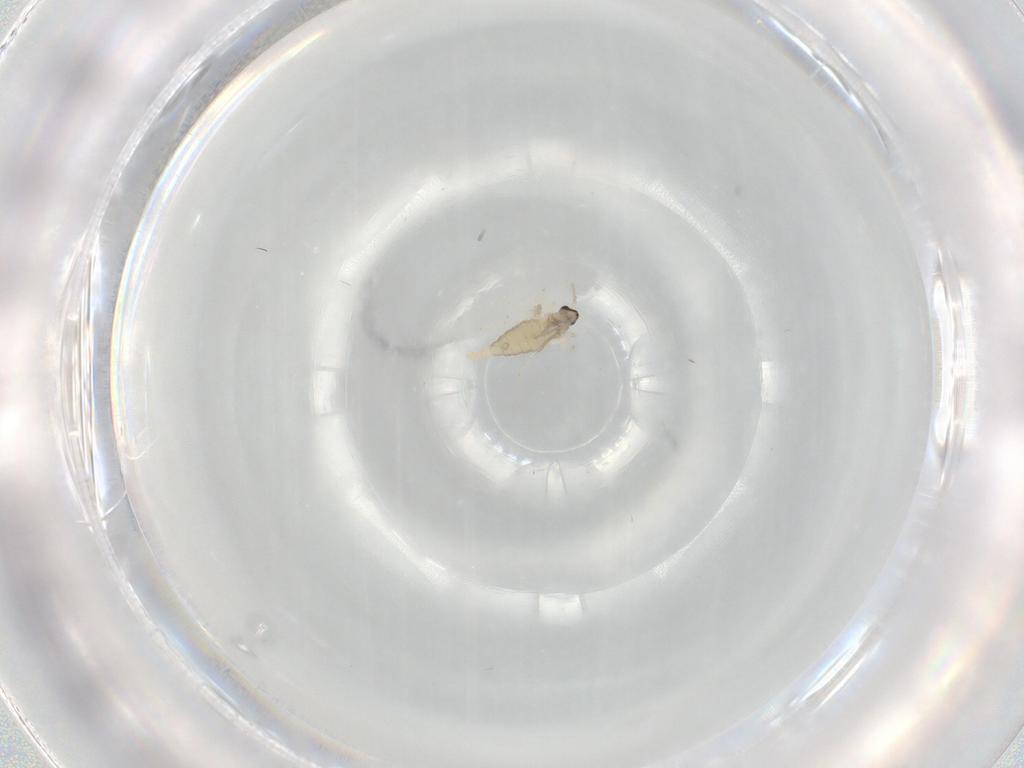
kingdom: Animalia
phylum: Arthropoda
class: Insecta
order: Diptera
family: Cecidomyiidae
